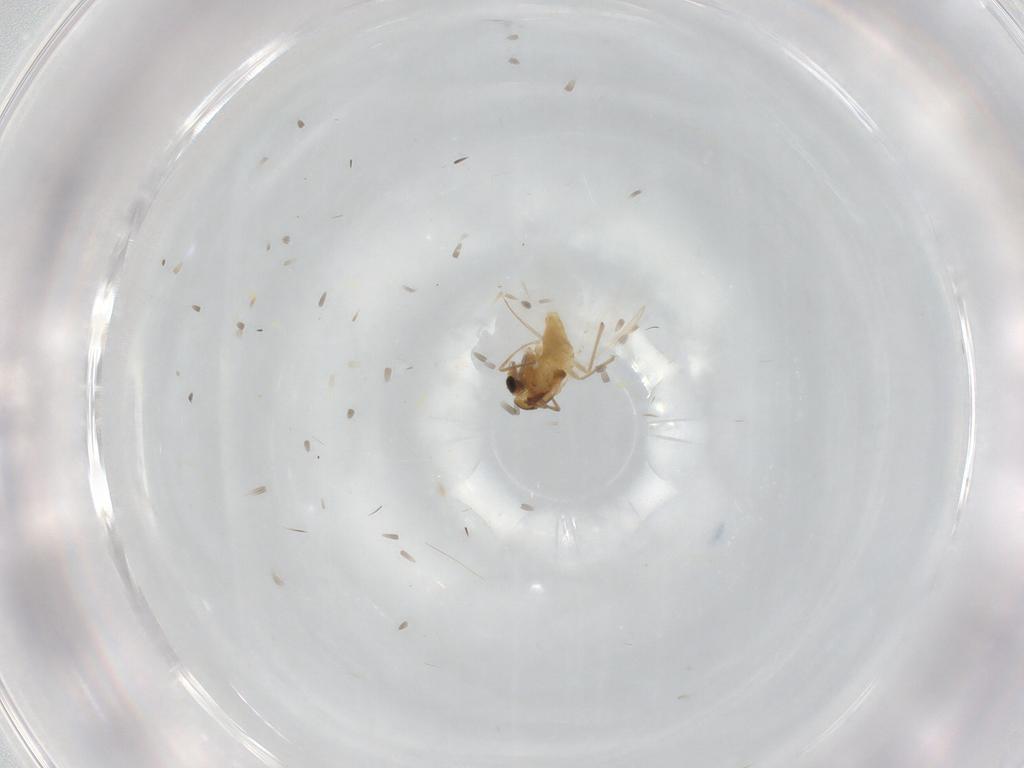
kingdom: Animalia
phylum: Arthropoda
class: Insecta
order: Diptera
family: Chironomidae
